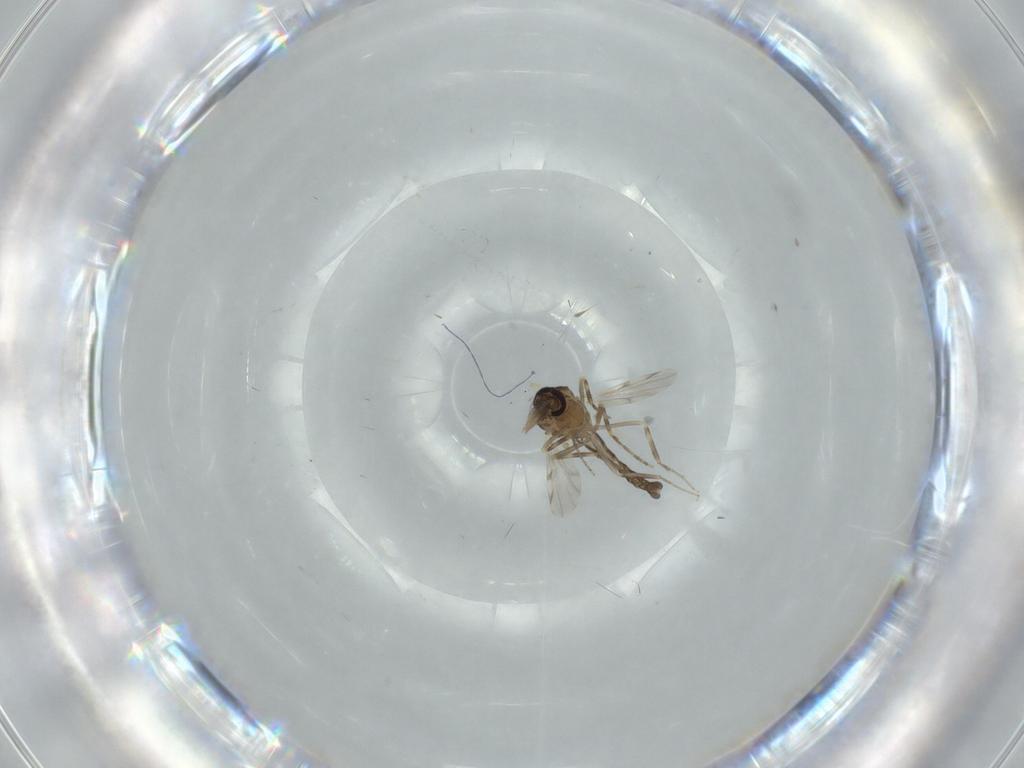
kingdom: Animalia
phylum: Arthropoda
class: Insecta
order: Diptera
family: Ceratopogonidae
